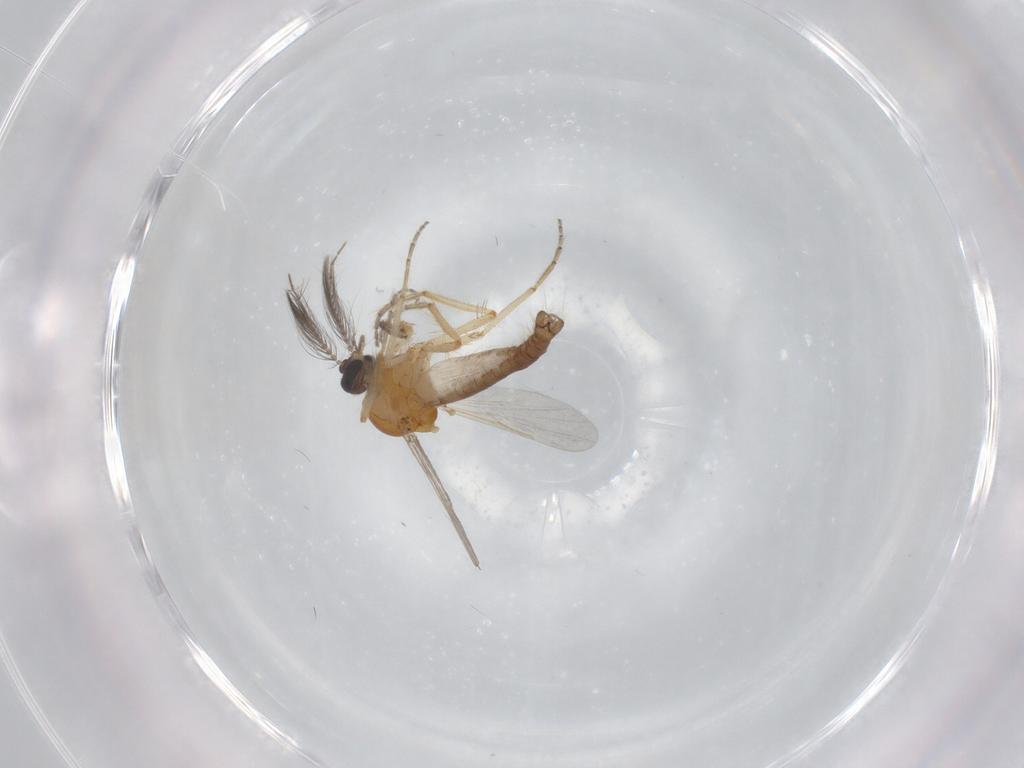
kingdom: Animalia
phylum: Arthropoda
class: Insecta
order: Diptera
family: Ceratopogonidae
